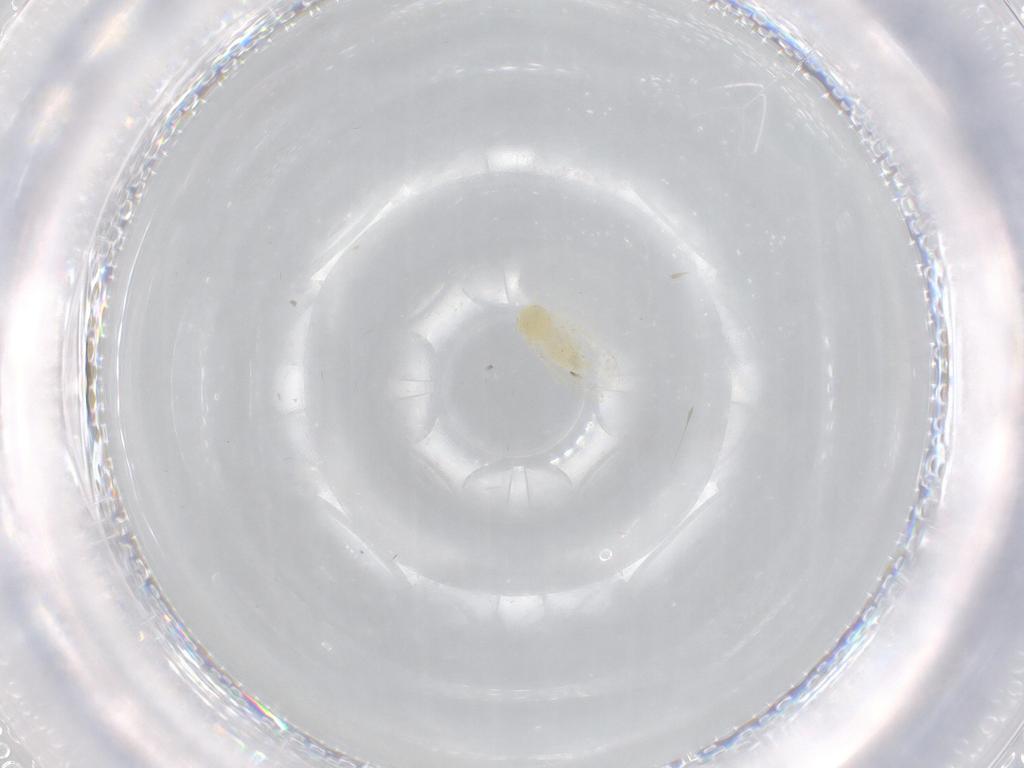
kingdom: Animalia
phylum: Arthropoda
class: Insecta
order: Hemiptera
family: Aleyrodidae
